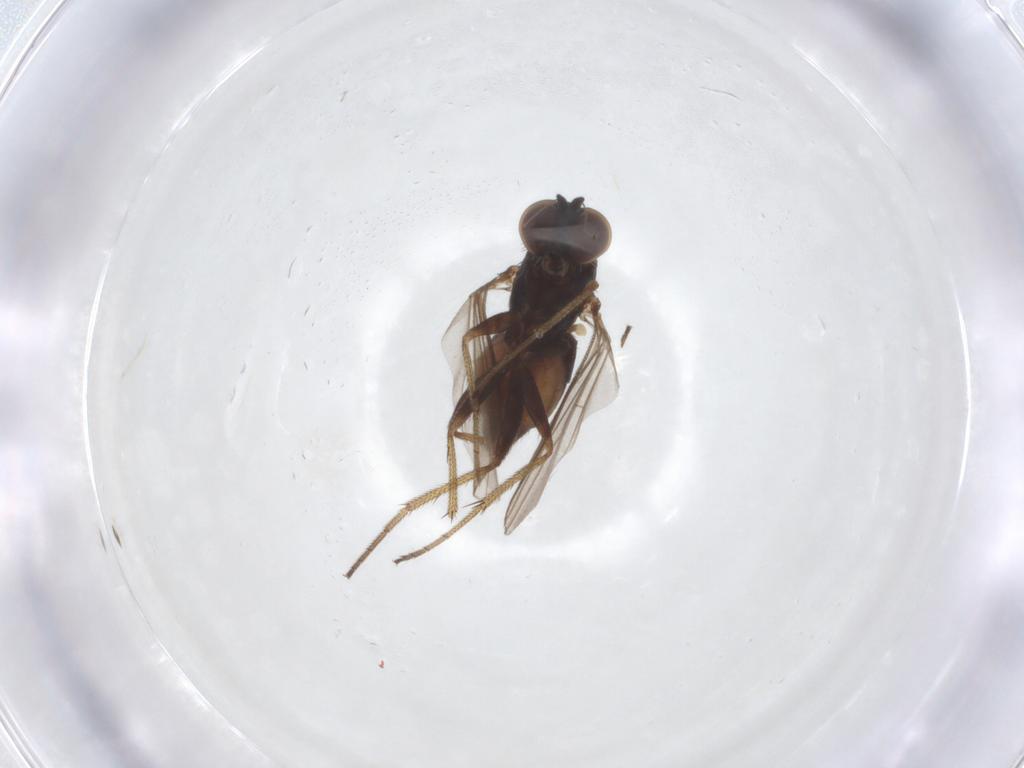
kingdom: Animalia
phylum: Arthropoda
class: Insecta
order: Diptera
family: Dolichopodidae
